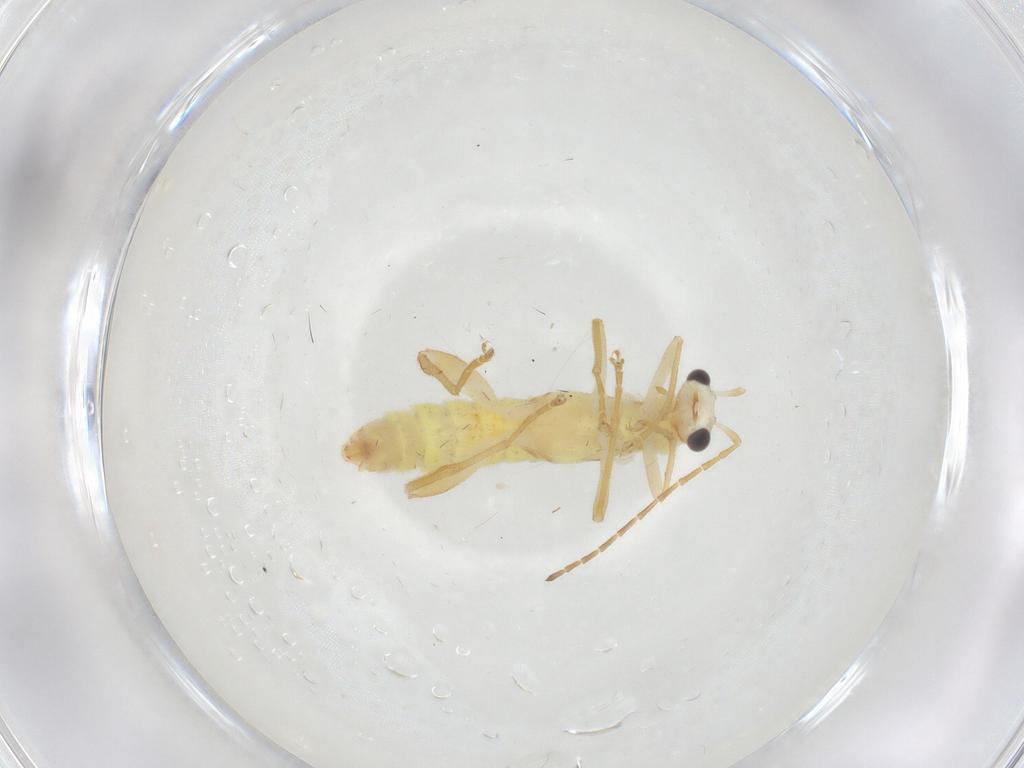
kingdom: Animalia
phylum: Arthropoda
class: Insecta
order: Coleoptera
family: Cantharidae
